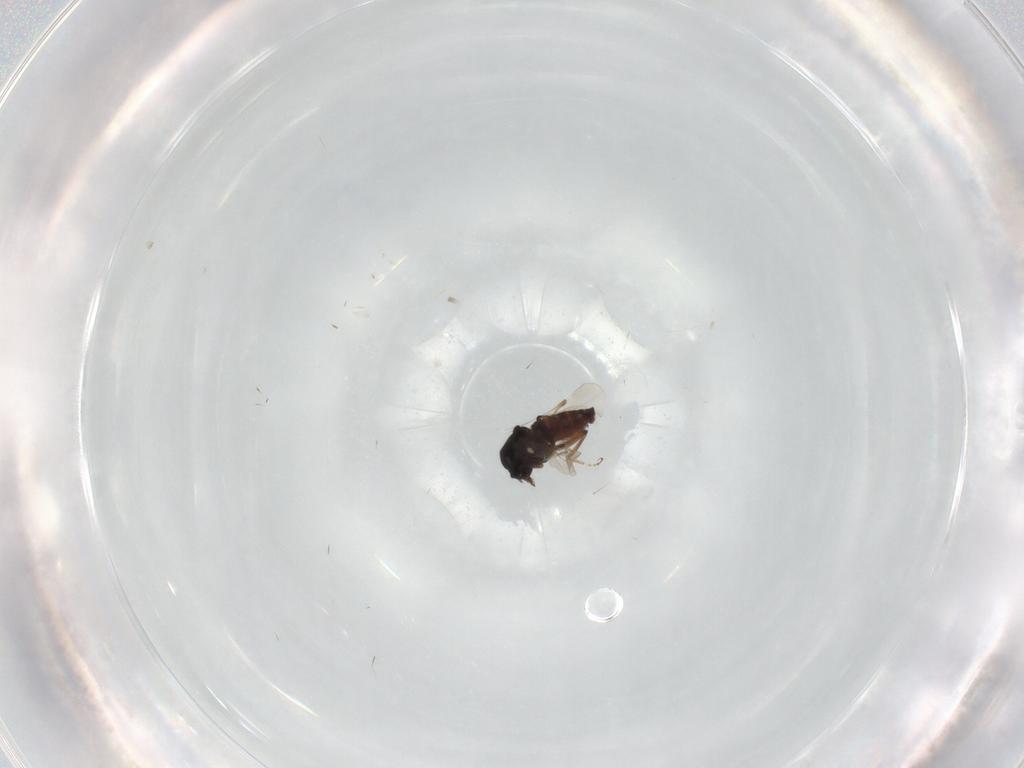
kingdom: Animalia
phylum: Arthropoda
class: Insecta
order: Diptera
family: Ceratopogonidae
